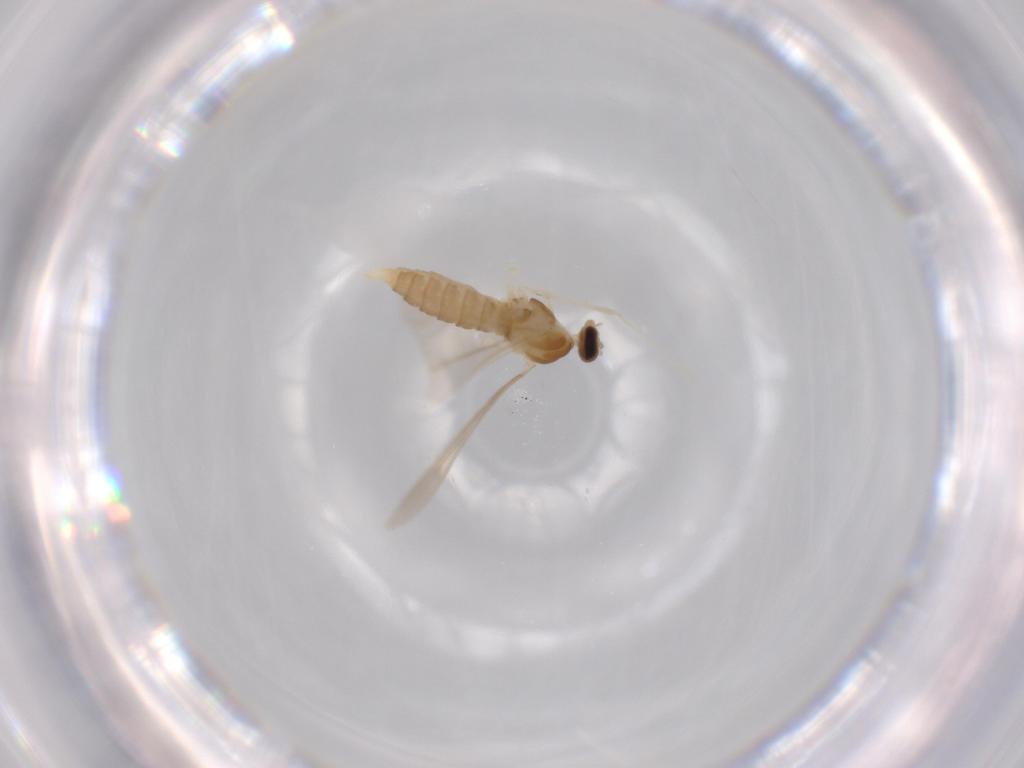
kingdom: Animalia
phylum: Arthropoda
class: Insecta
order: Diptera
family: Cecidomyiidae
